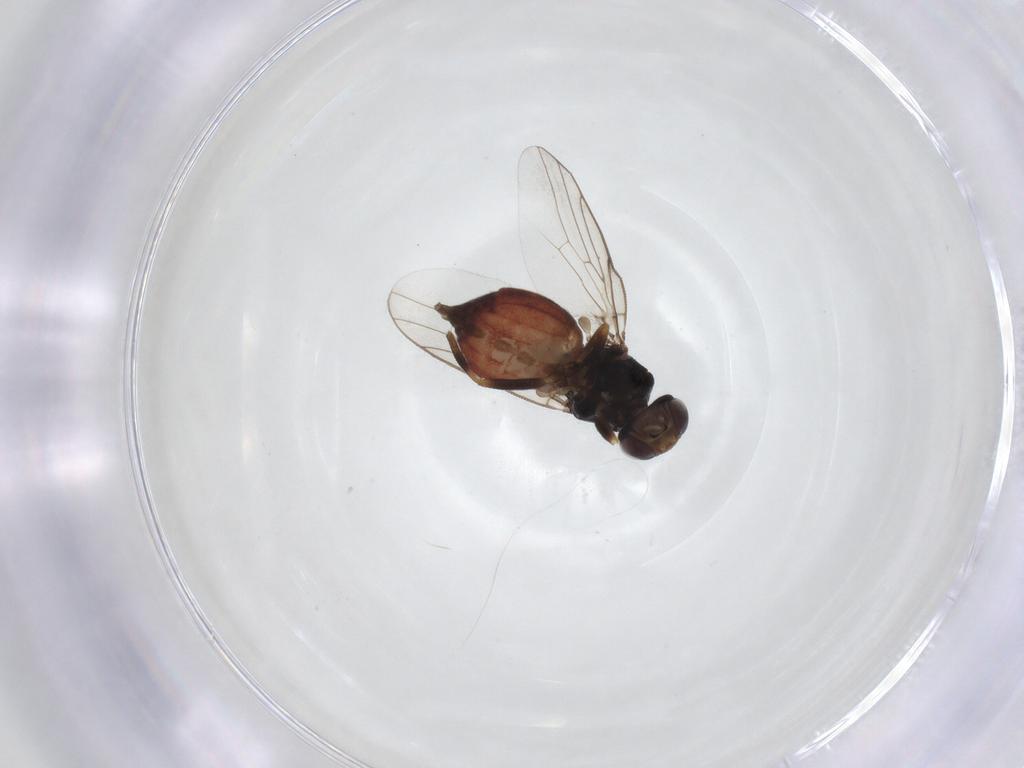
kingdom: Animalia
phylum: Arthropoda
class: Insecta
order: Diptera
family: Chloropidae
